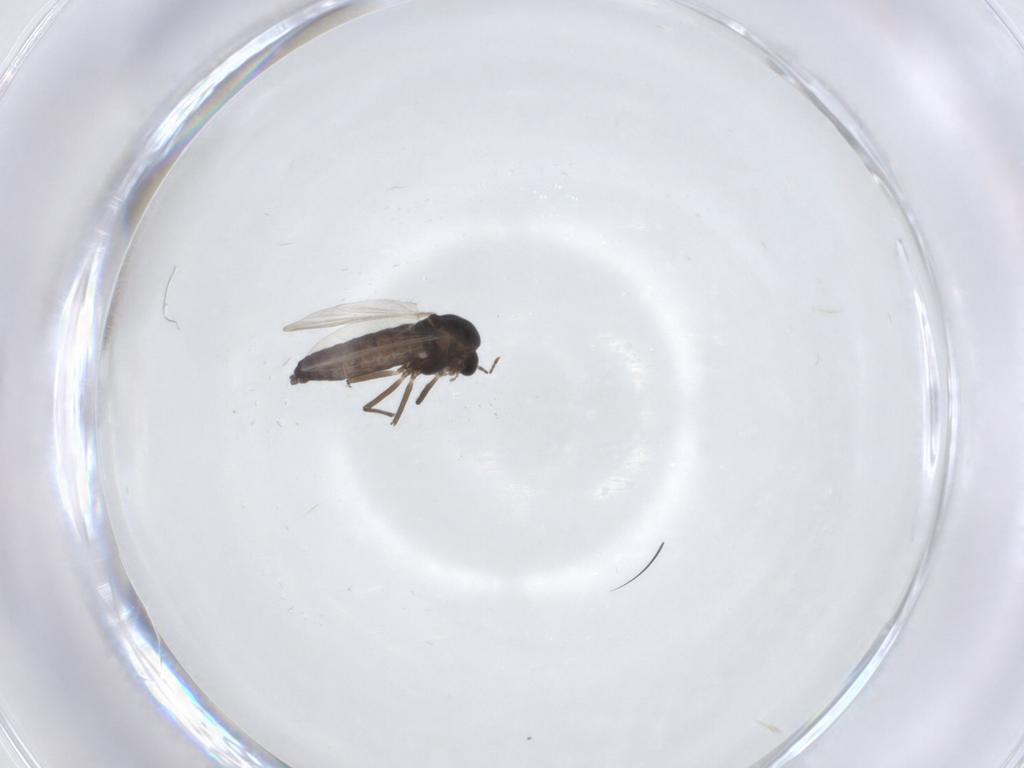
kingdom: Animalia
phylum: Arthropoda
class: Insecta
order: Diptera
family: Chironomidae
